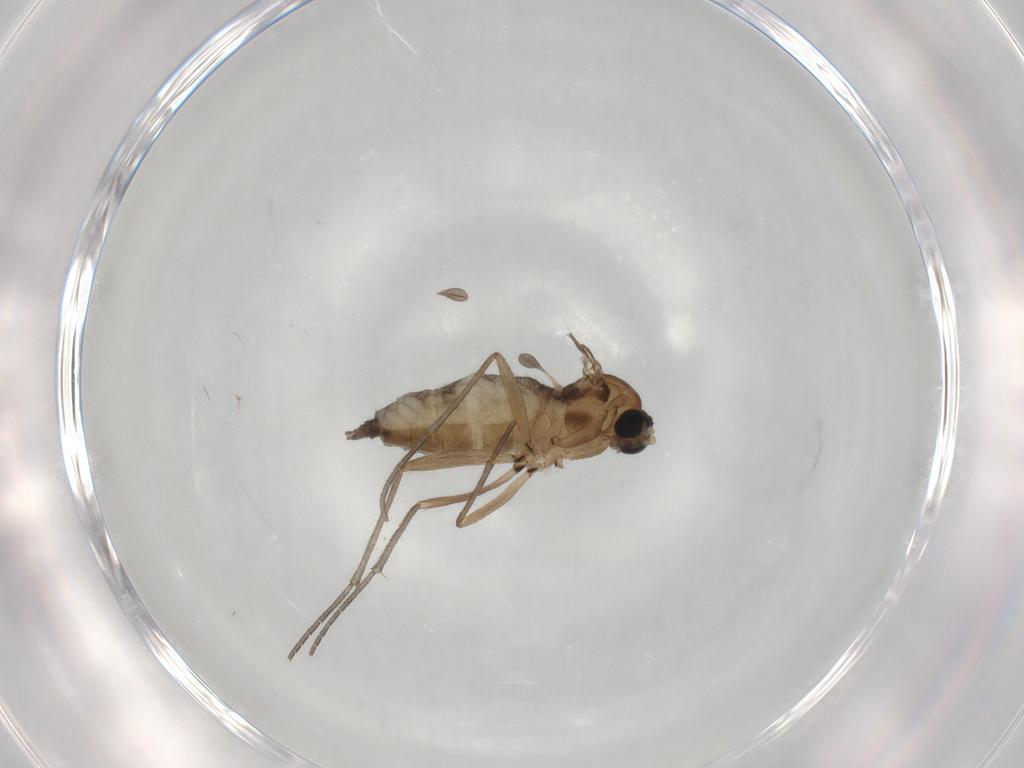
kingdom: Animalia
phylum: Arthropoda
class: Insecta
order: Diptera
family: Sciaridae
